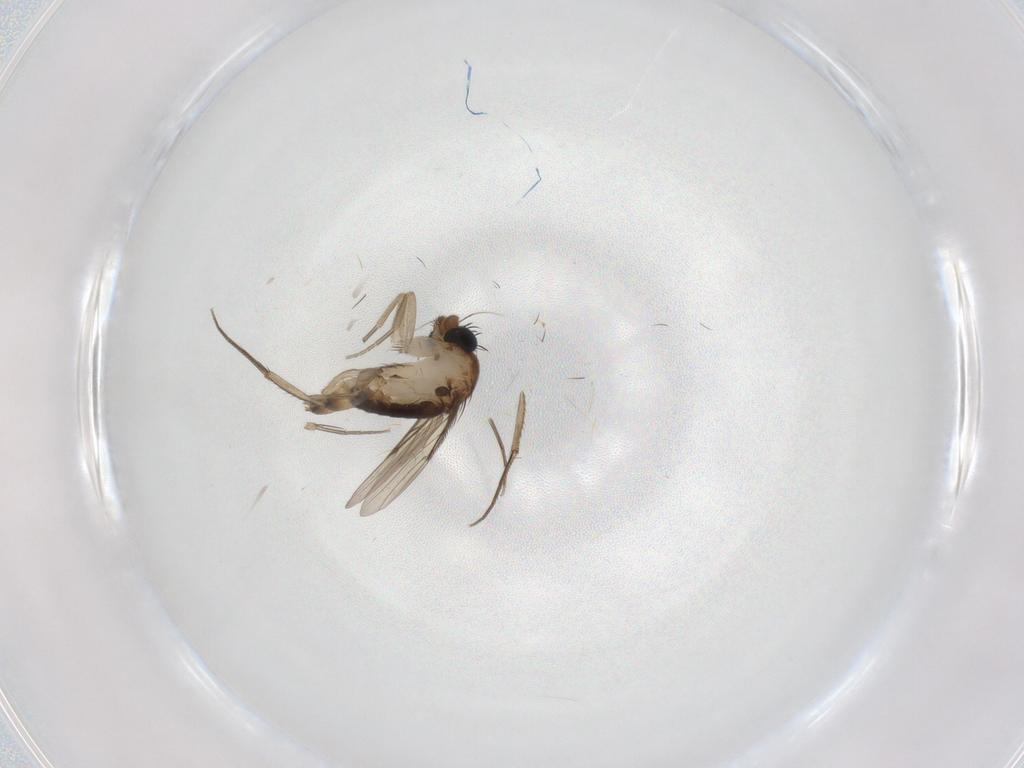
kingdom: Animalia
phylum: Arthropoda
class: Insecta
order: Diptera
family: Phoridae
